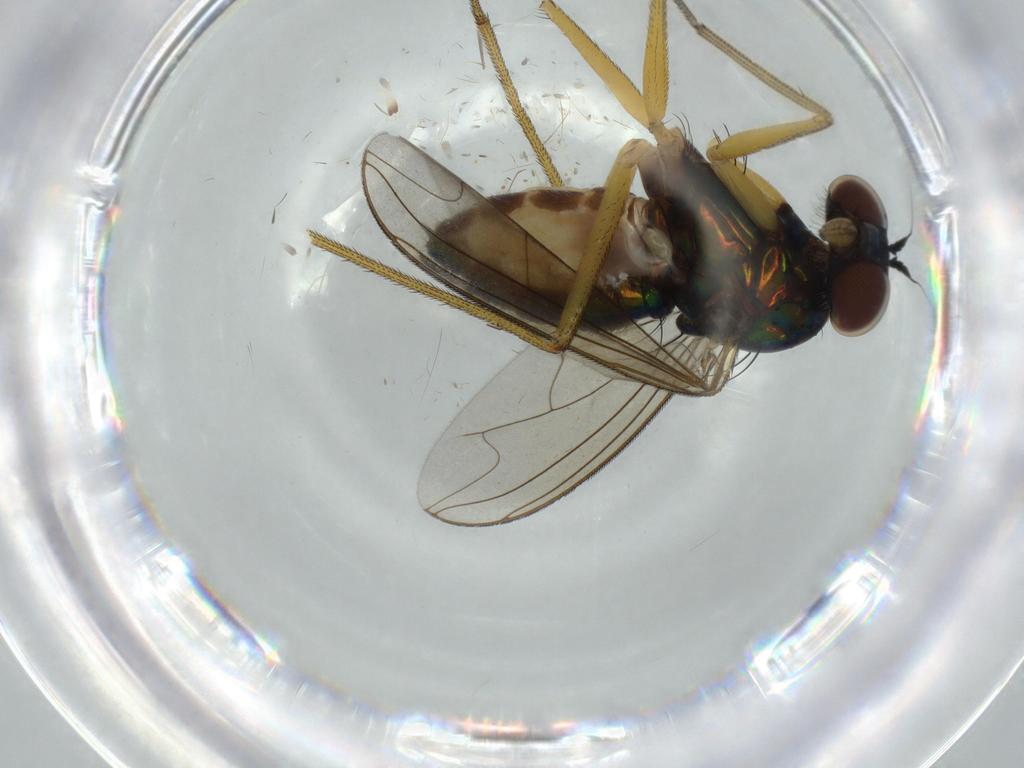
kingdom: Animalia
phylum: Arthropoda
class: Insecta
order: Diptera
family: Dolichopodidae
